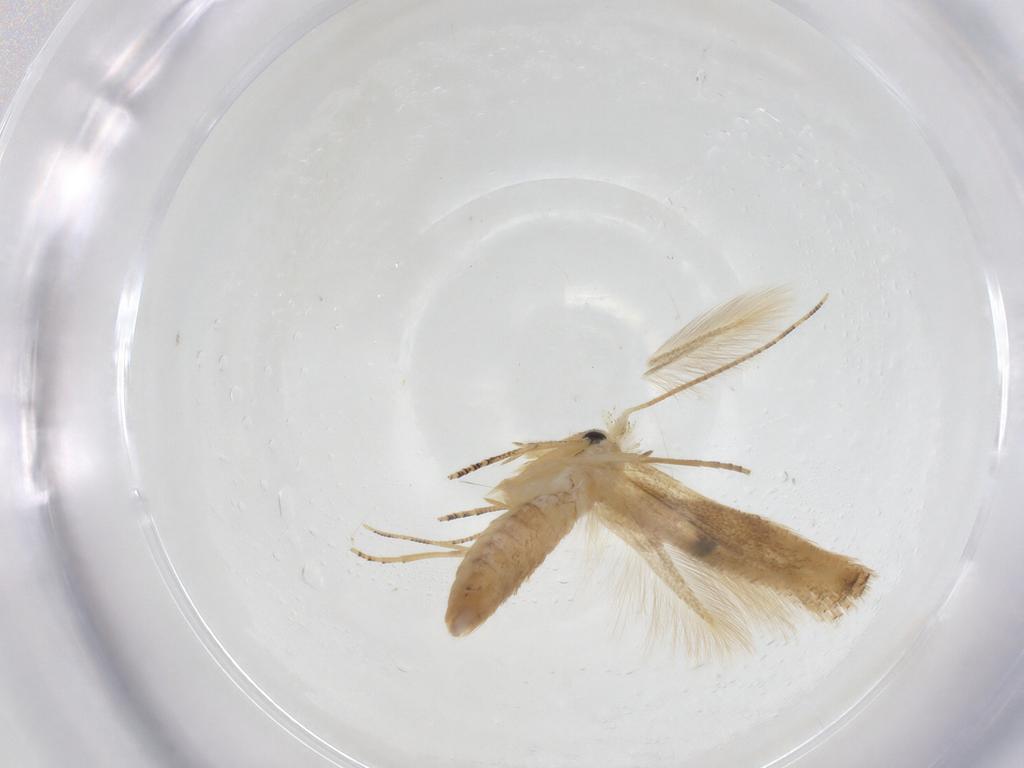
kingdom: Animalia
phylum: Arthropoda
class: Insecta
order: Lepidoptera
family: Bucculatricidae
